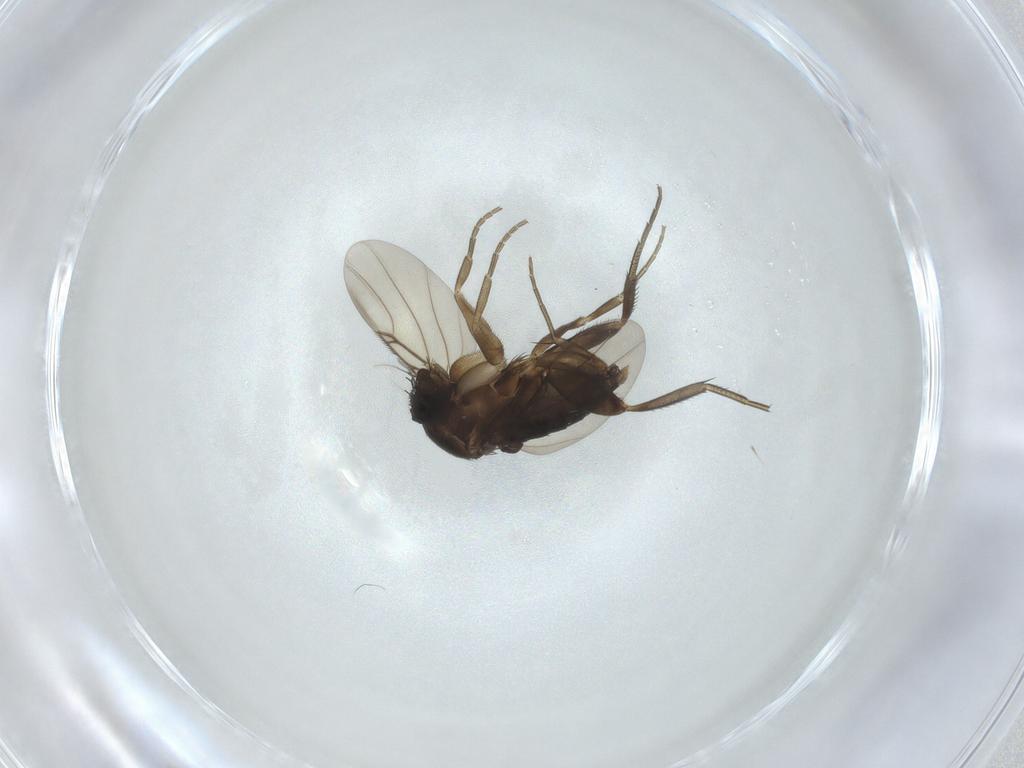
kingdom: Animalia
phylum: Arthropoda
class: Insecta
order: Diptera
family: Phoridae
